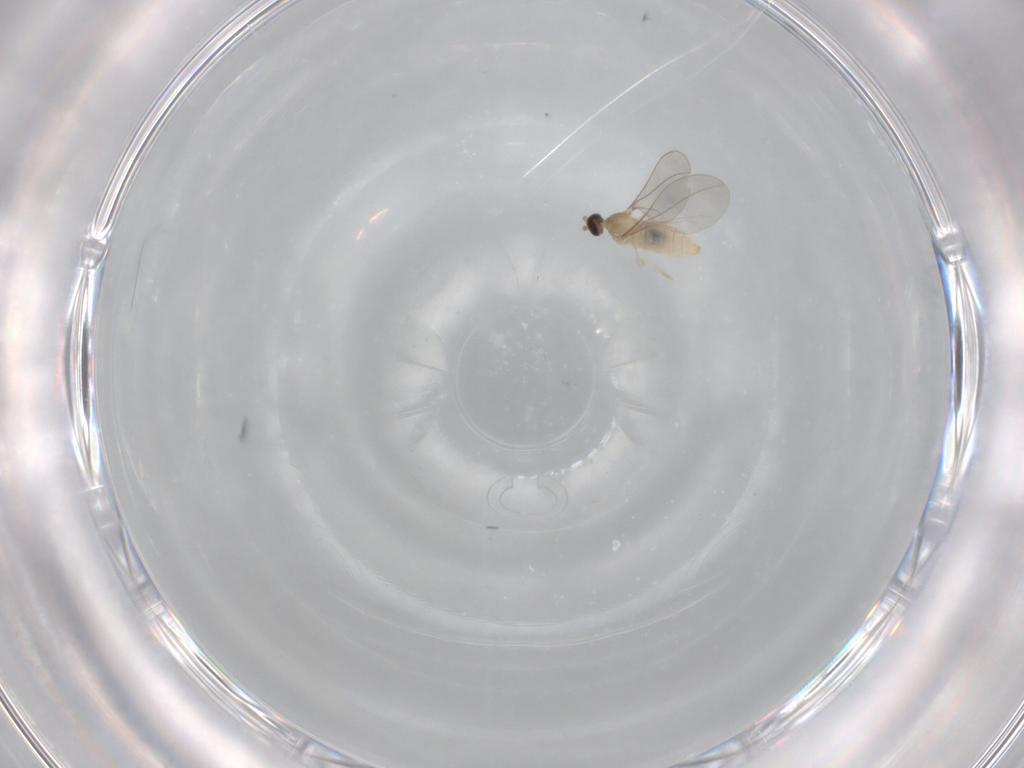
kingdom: Animalia
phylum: Arthropoda
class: Insecta
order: Diptera
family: Cecidomyiidae
